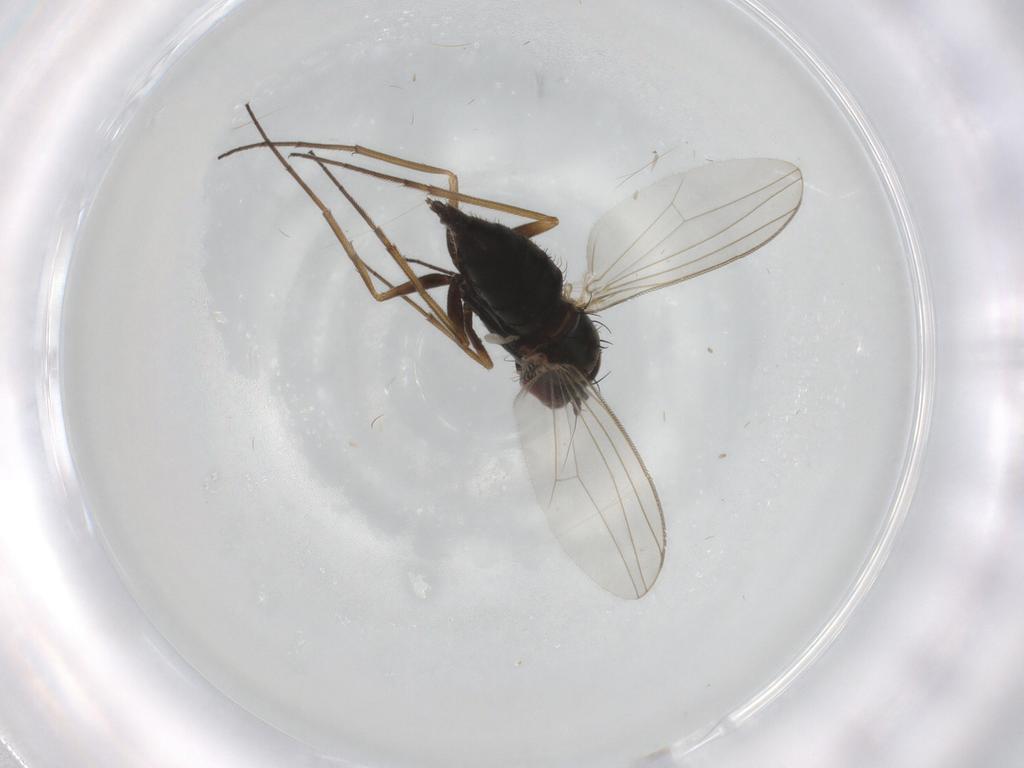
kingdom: Animalia
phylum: Arthropoda
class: Insecta
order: Diptera
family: Dolichopodidae
